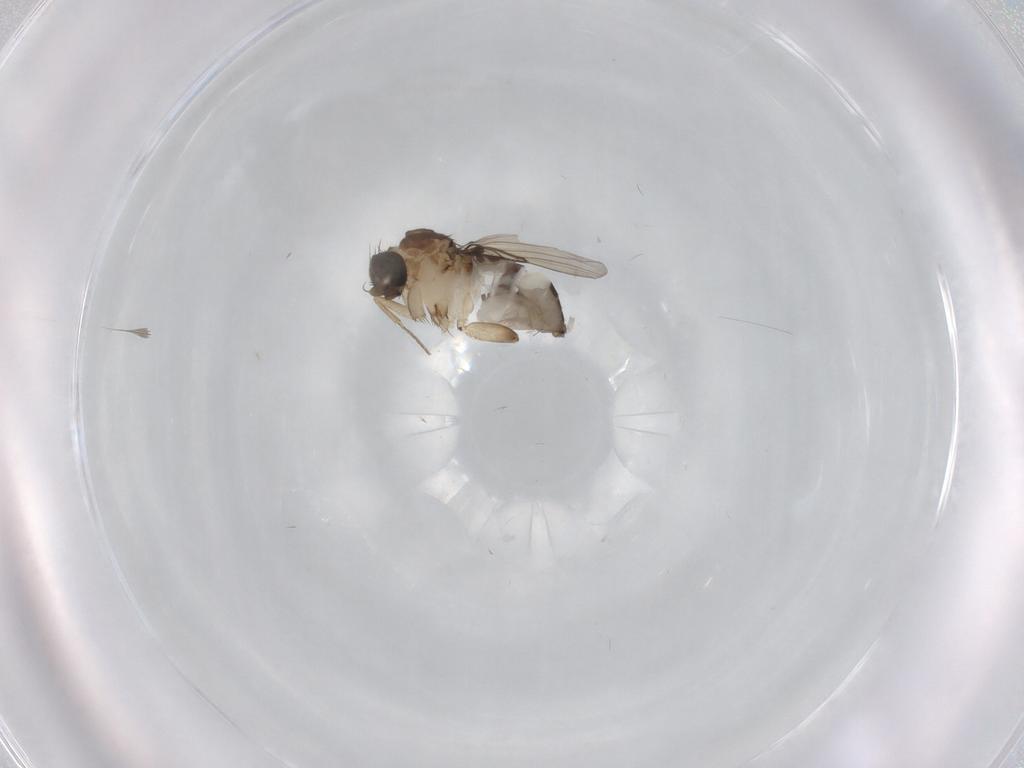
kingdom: Animalia
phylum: Arthropoda
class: Insecta
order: Diptera
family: Phoridae
